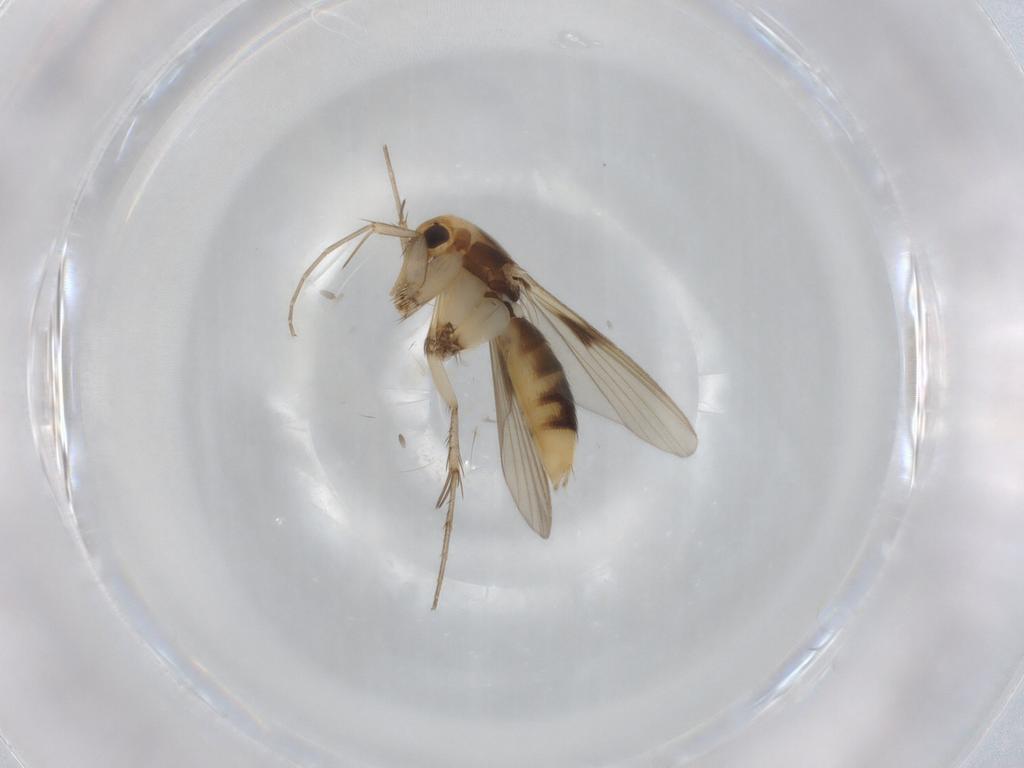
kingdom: Animalia
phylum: Arthropoda
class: Insecta
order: Diptera
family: Mycetophilidae
